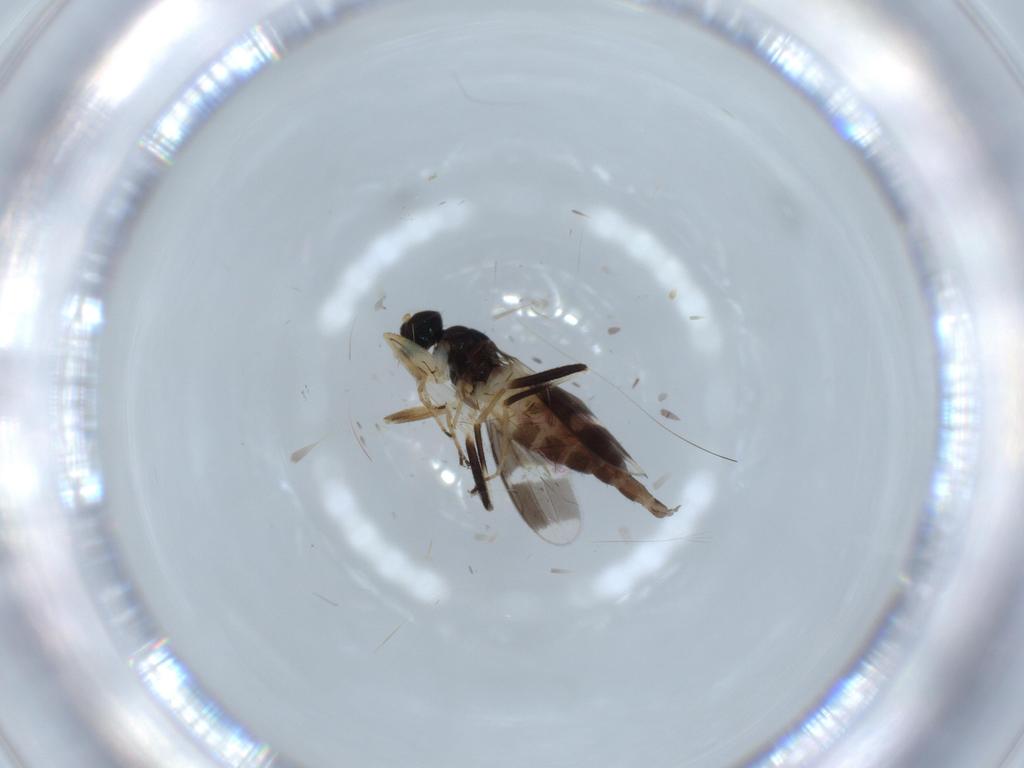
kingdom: Animalia
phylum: Arthropoda
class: Insecta
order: Diptera
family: Hybotidae
